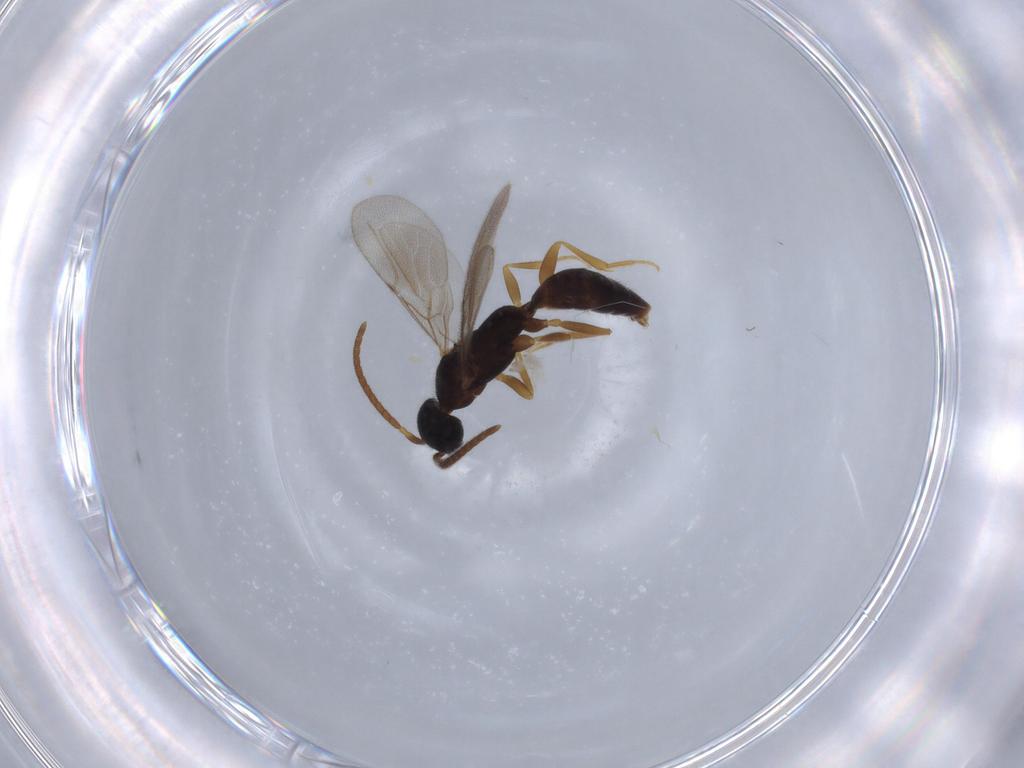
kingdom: Animalia
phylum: Arthropoda
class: Insecta
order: Hymenoptera
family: Bethylidae
